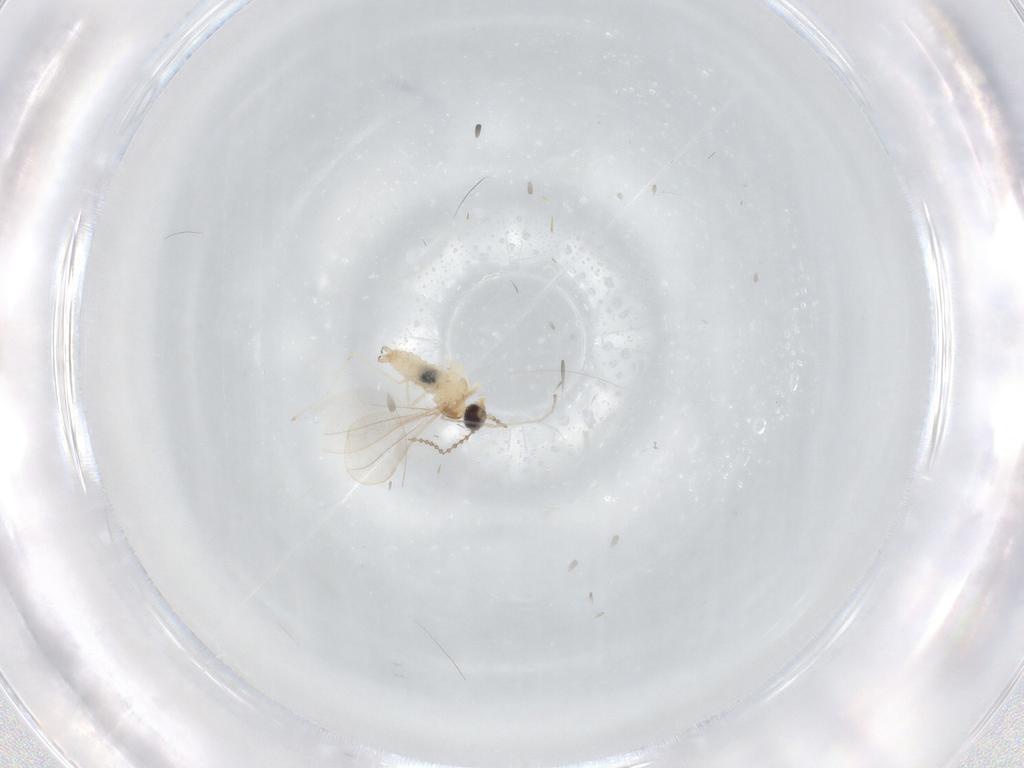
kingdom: Animalia
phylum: Arthropoda
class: Insecta
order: Diptera
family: Cecidomyiidae
